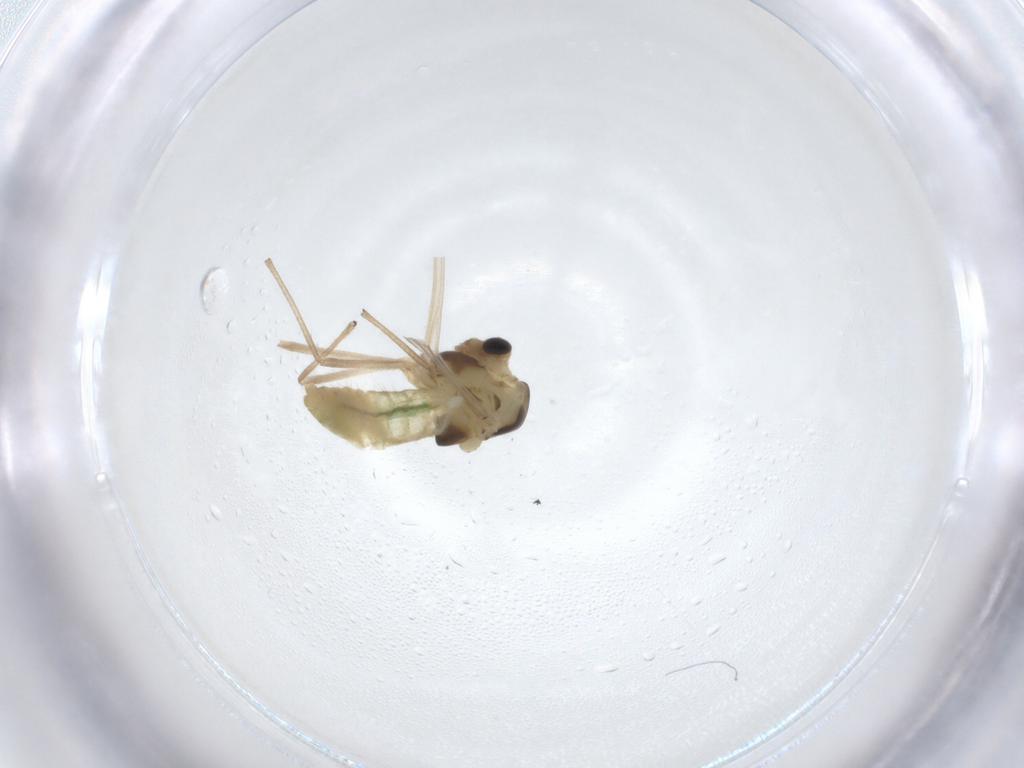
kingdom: Animalia
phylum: Arthropoda
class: Insecta
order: Diptera
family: Chironomidae
